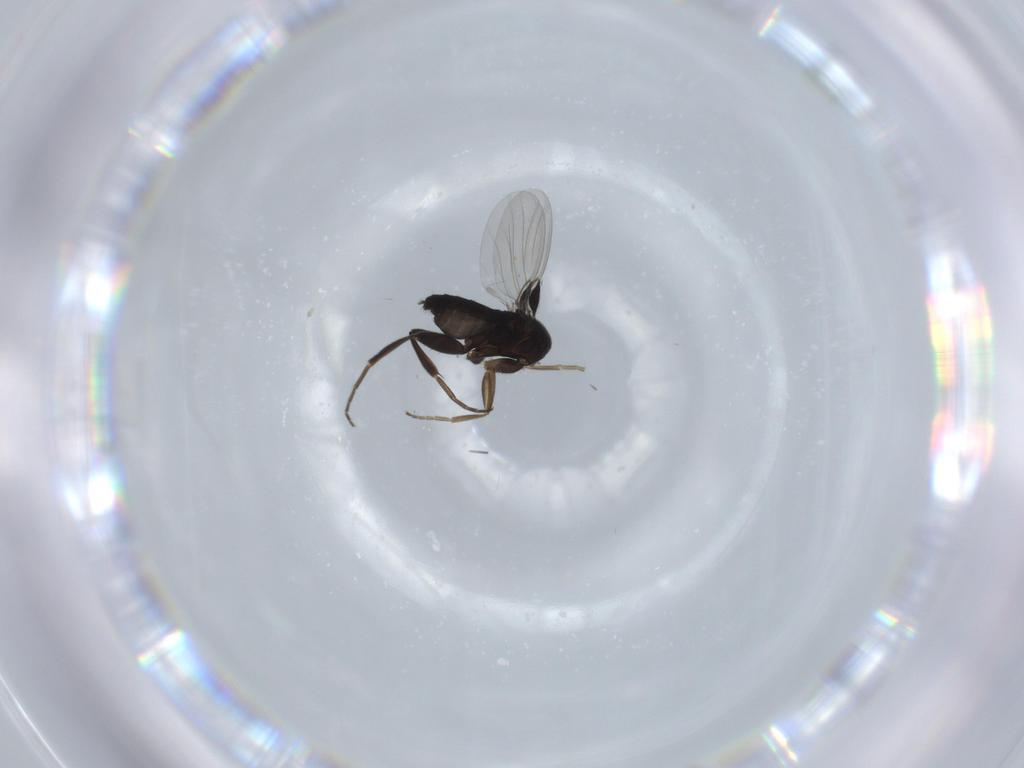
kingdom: Animalia
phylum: Arthropoda
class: Insecta
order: Diptera
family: Phoridae
